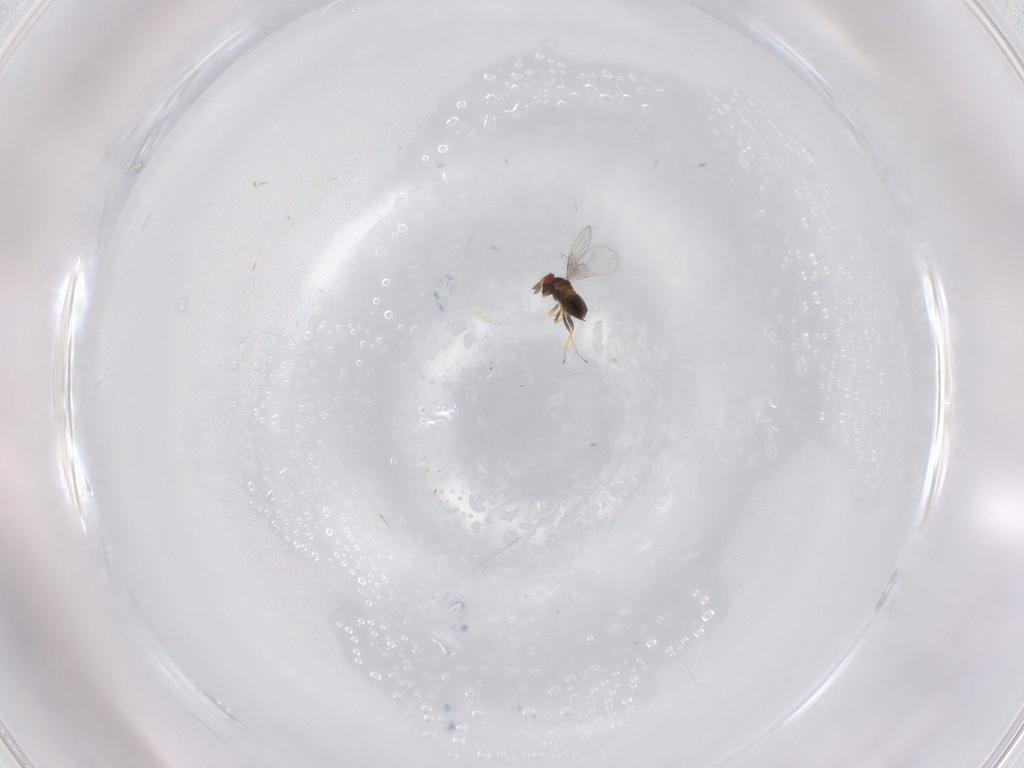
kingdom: Animalia
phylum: Arthropoda
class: Insecta
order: Hymenoptera
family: Trichogrammatidae
